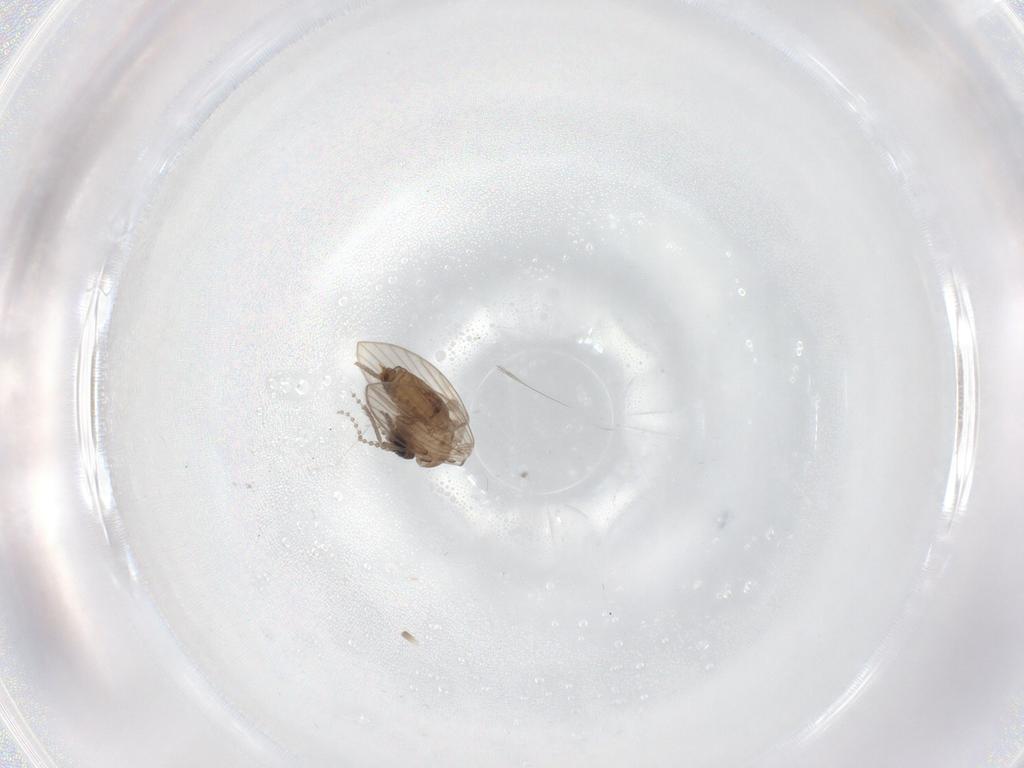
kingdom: Animalia
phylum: Arthropoda
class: Insecta
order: Diptera
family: Psychodidae
